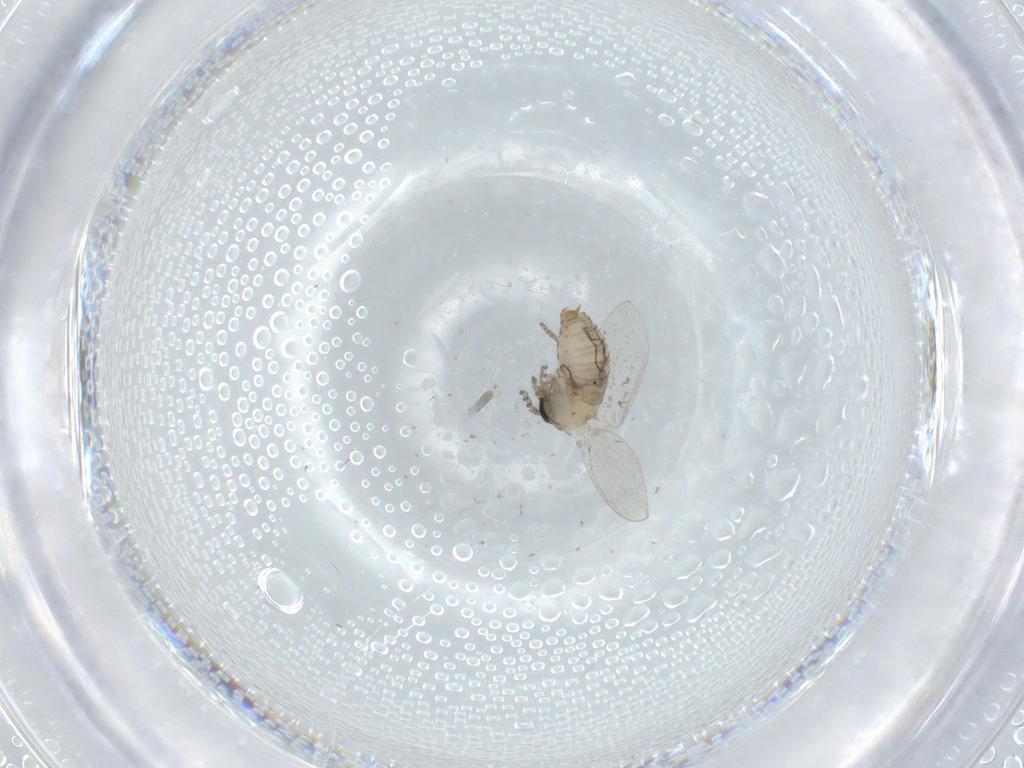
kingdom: Animalia
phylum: Arthropoda
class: Insecta
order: Diptera
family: Psychodidae
